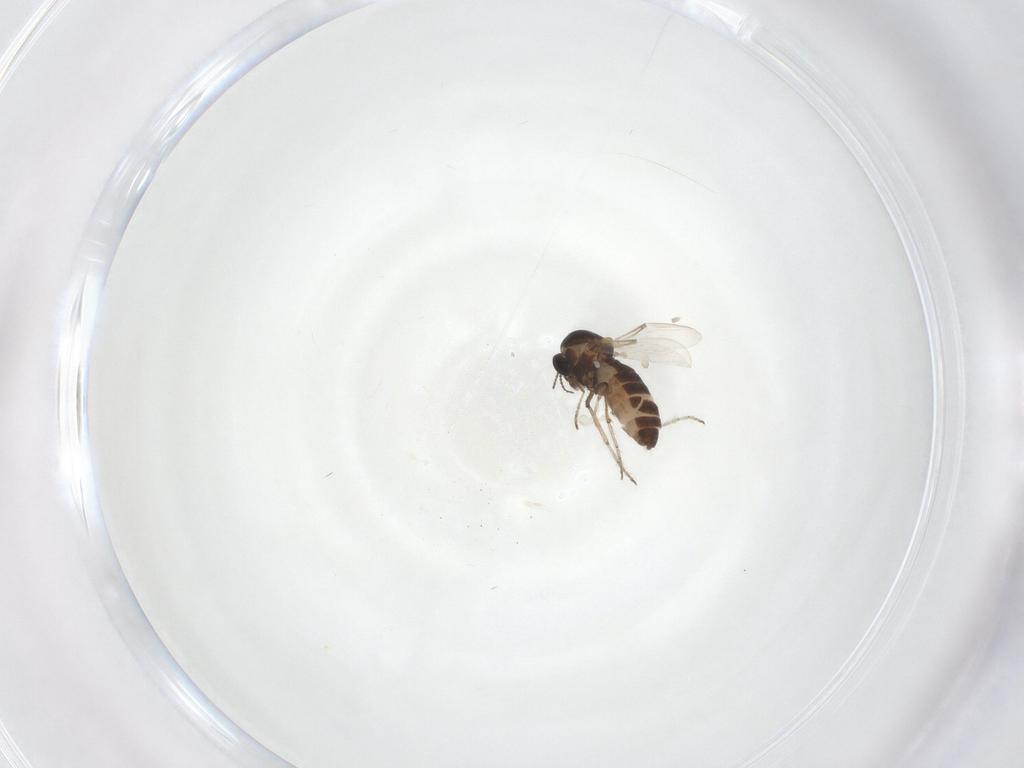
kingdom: Animalia
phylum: Arthropoda
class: Insecta
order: Diptera
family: Ceratopogonidae
